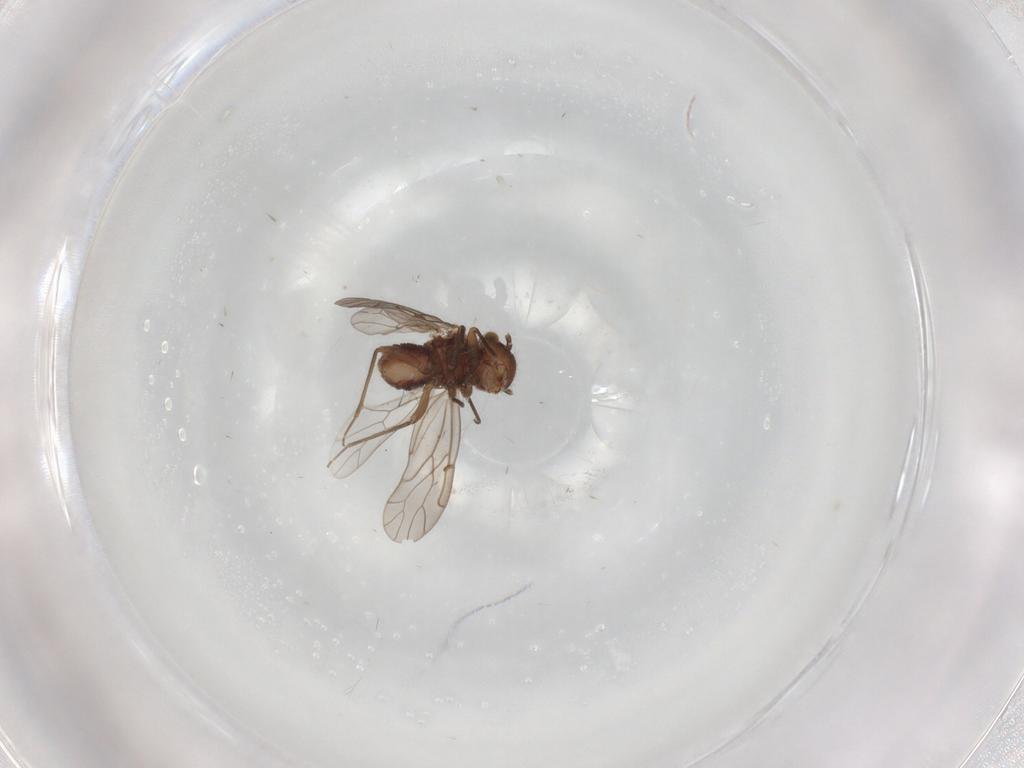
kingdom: Animalia
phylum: Arthropoda
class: Insecta
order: Psocodea
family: Ectopsocidae
